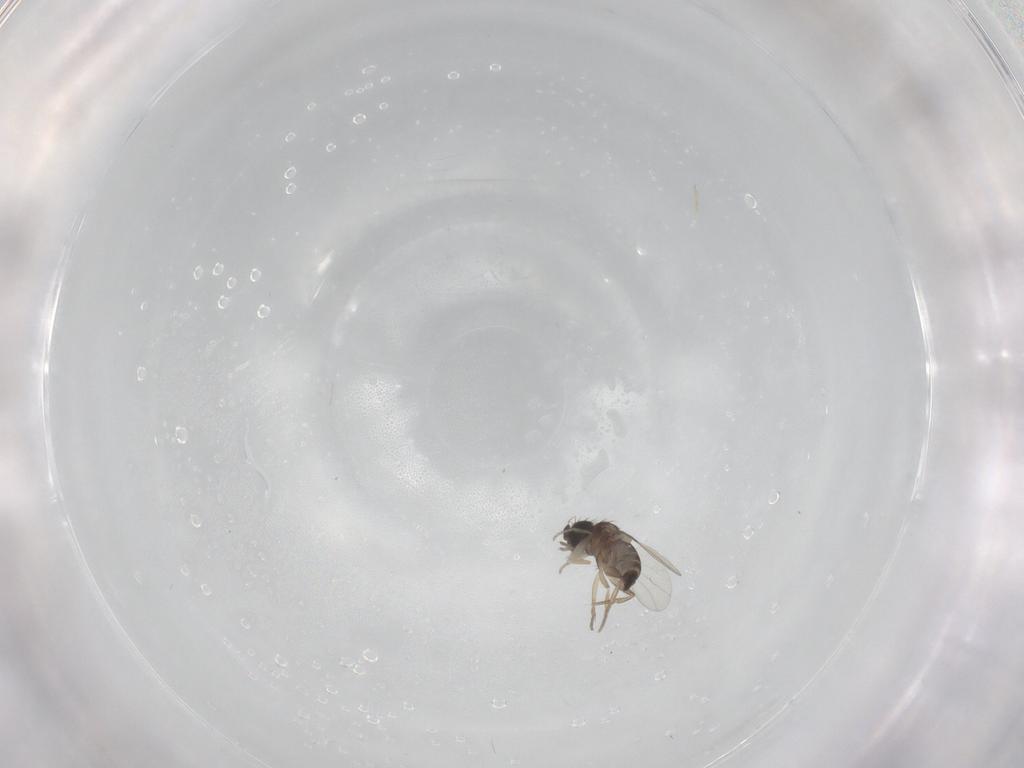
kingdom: Animalia
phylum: Arthropoda
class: Insecta
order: Diptera
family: Phoridae
